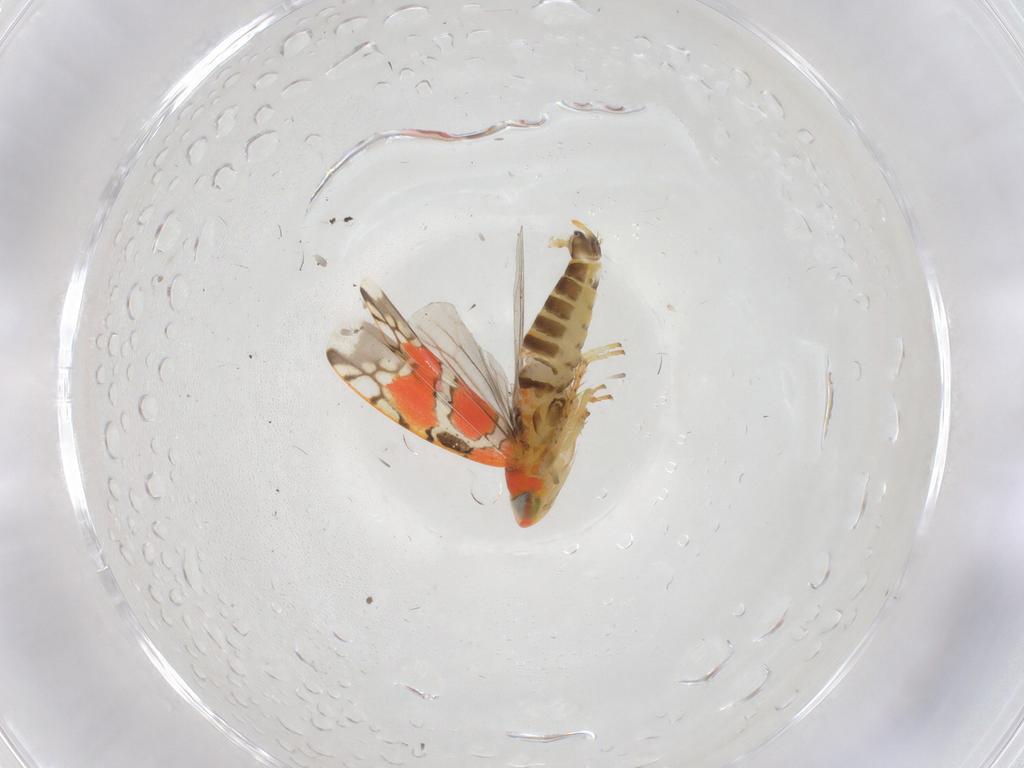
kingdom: Animalia
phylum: Arthropoda
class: Insecta
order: Hemiptera
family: Cicadellidae
